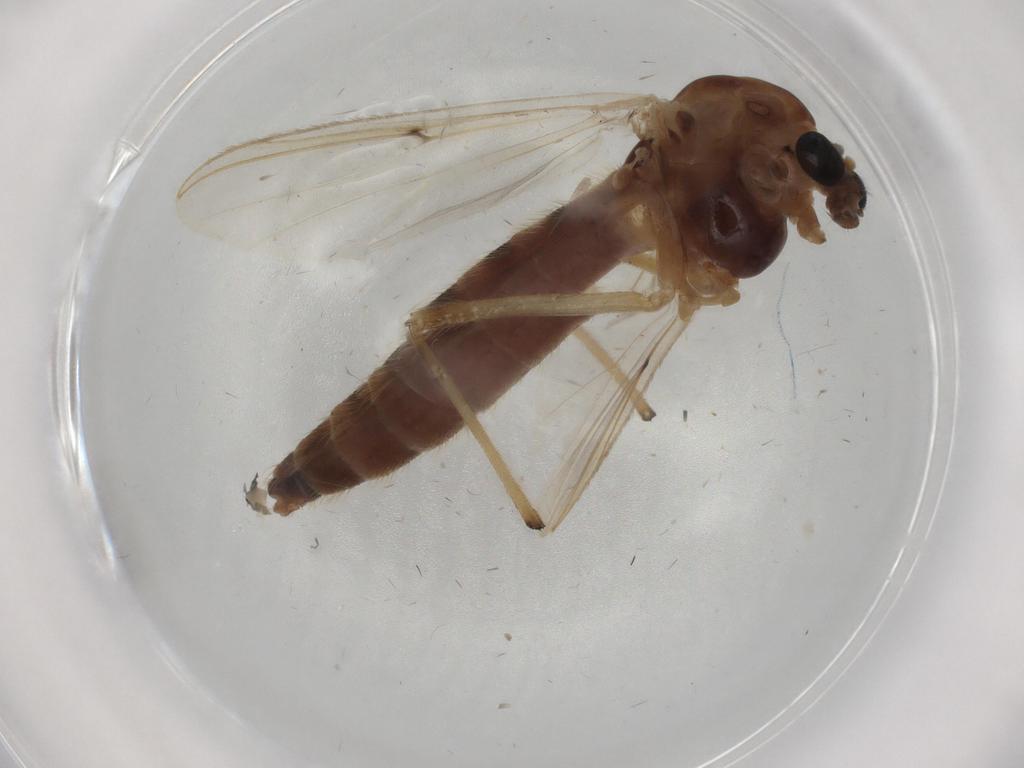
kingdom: Animalia
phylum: Arthropoda
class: Insecta
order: Diptera
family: Chironomidae
